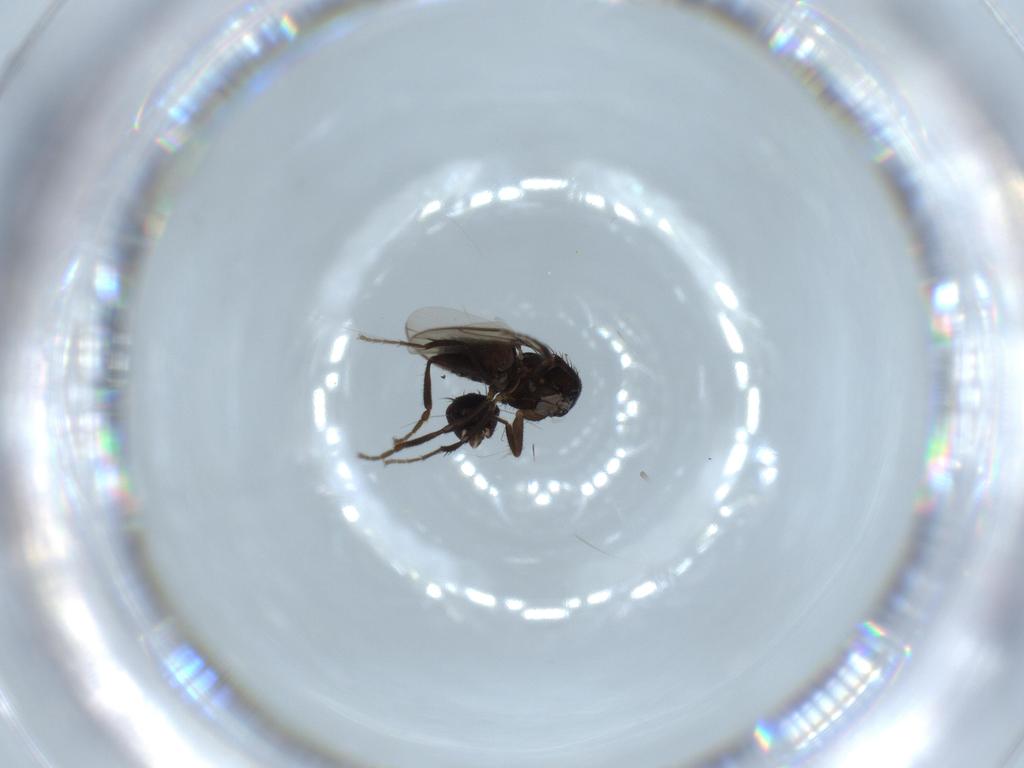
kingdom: Animalia
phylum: Arthropoda
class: Insecta
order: Diptera
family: Sphaeroceridae
